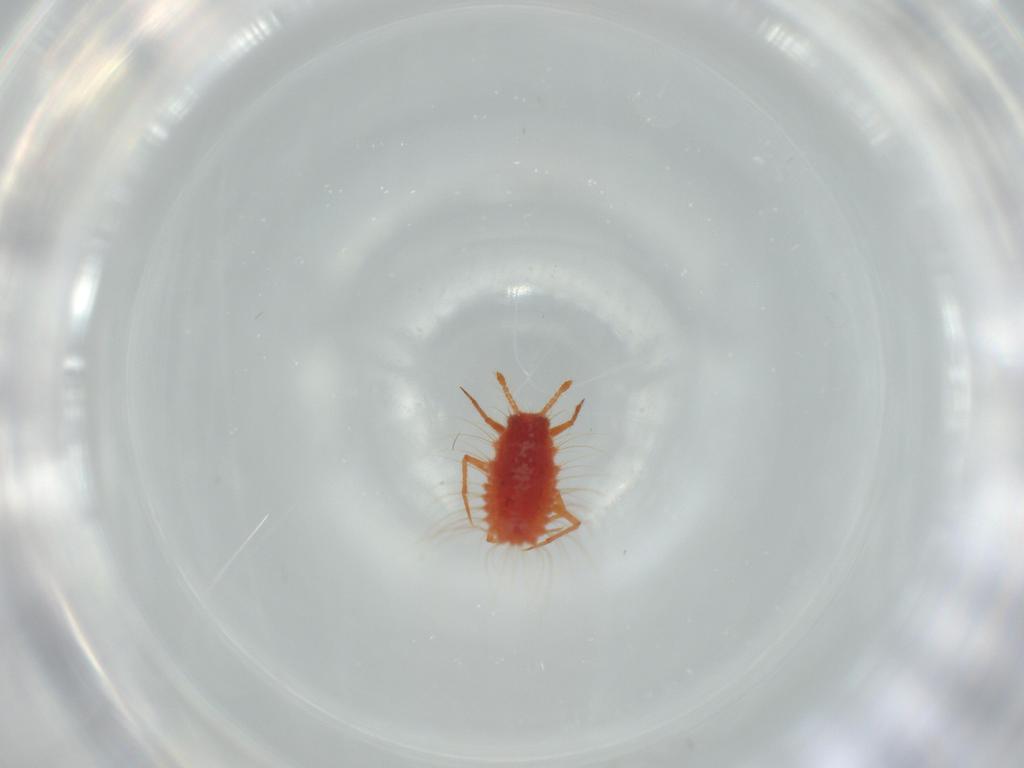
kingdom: Animalia
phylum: Arthropoda
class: Insecta
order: Hemiptera
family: Monophlebidae
